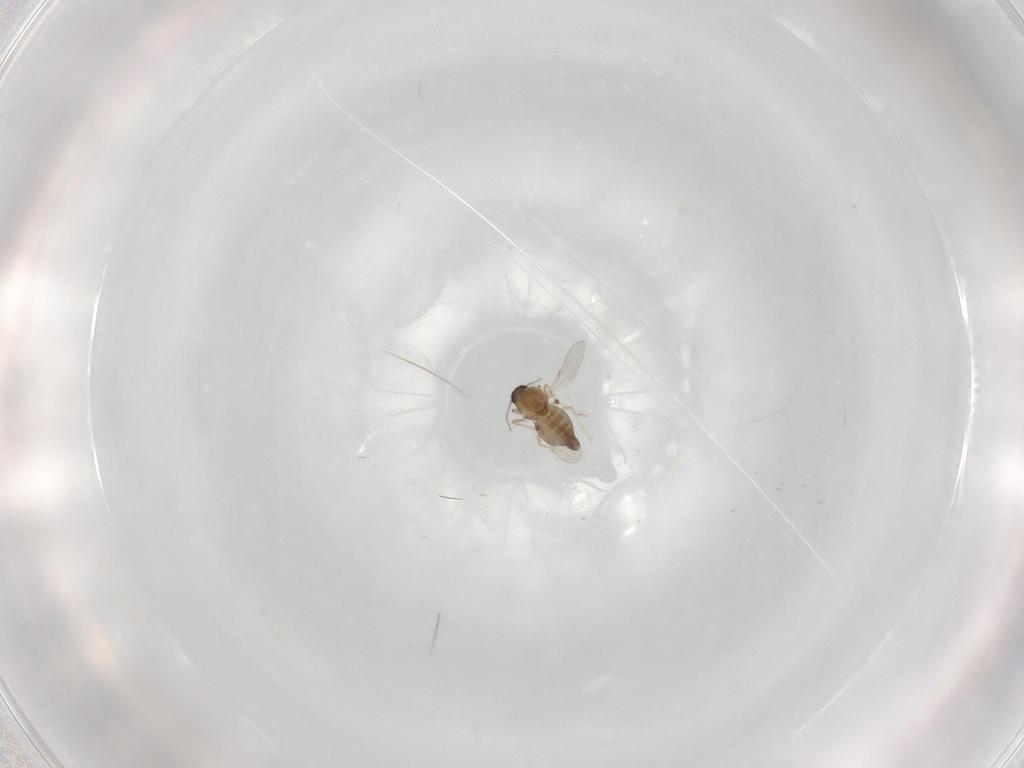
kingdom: Animalia
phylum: Arthropoda
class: Insecta
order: Diptera
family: Ceratopogonidae
